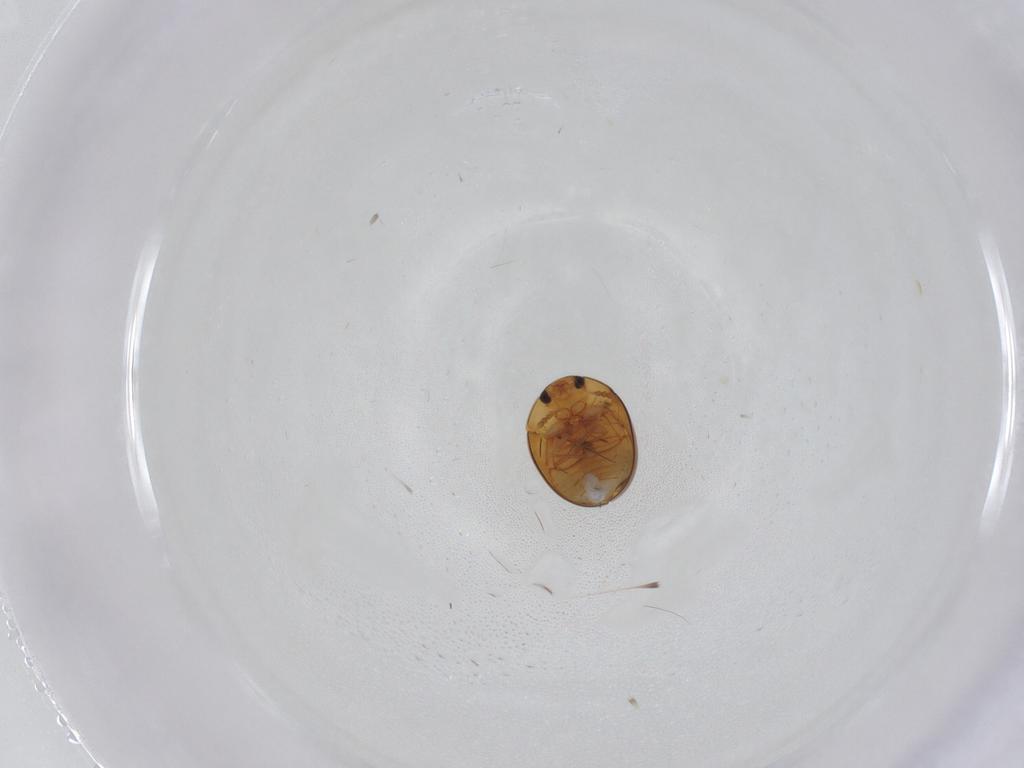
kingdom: Animalia
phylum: Arthropoda
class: Insecta
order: Coleoptera
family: Phalacridae
